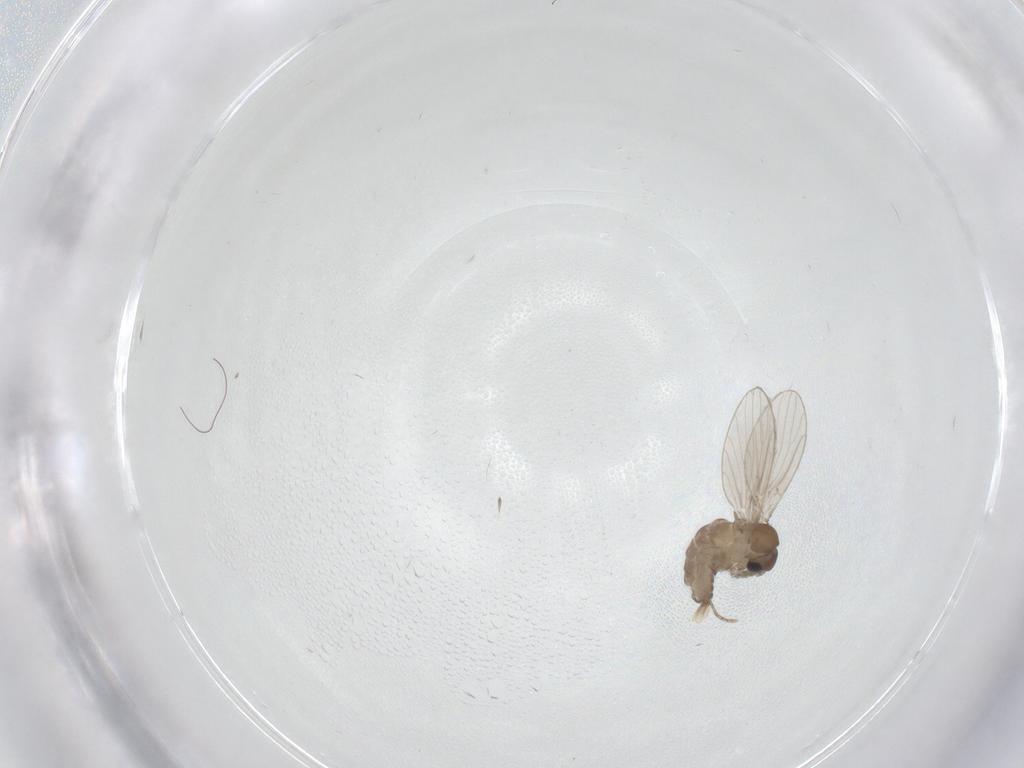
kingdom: Animalia
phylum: Arthropoda
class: Insecta
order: Diptera
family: Psychodidae
